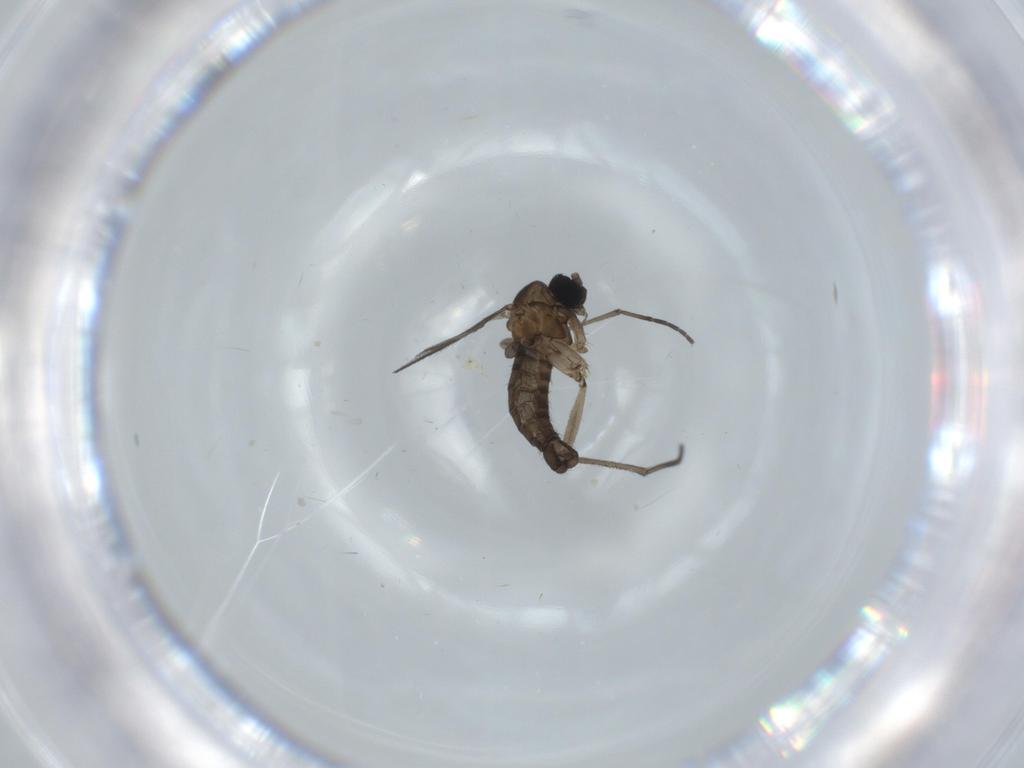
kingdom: Animalia
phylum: Arthropoda
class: Insecta
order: Diptera
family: Sciaridae
